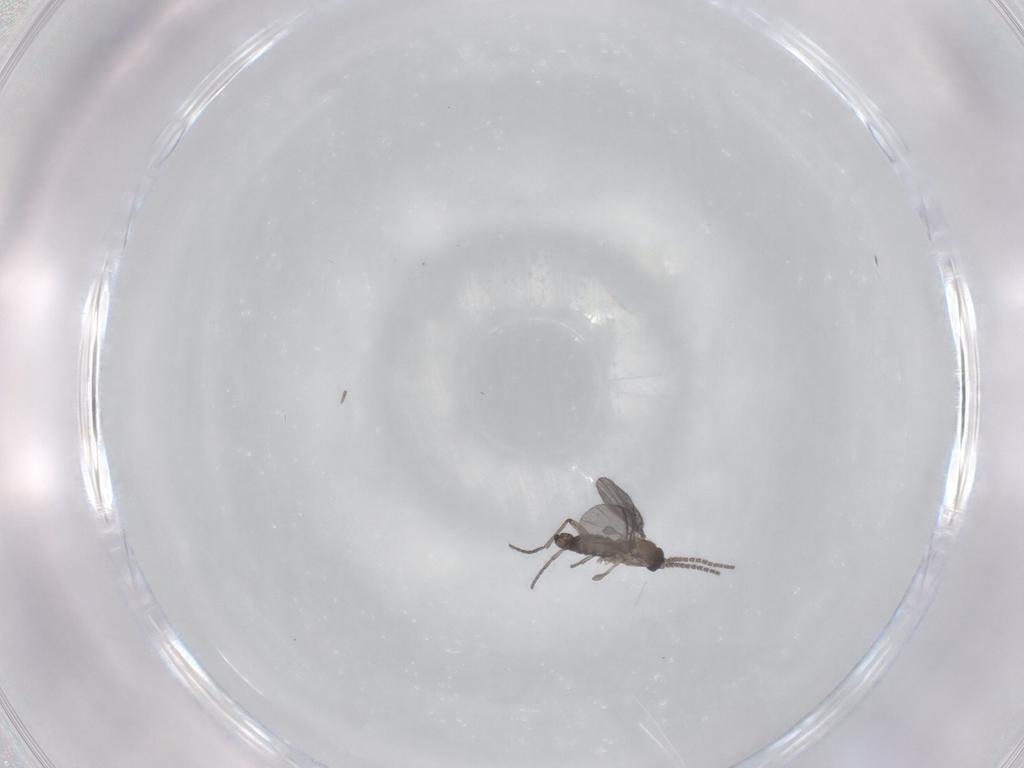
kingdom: Animalia
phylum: Arthropoda
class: Insecta
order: Diptera
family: Sciaridae
